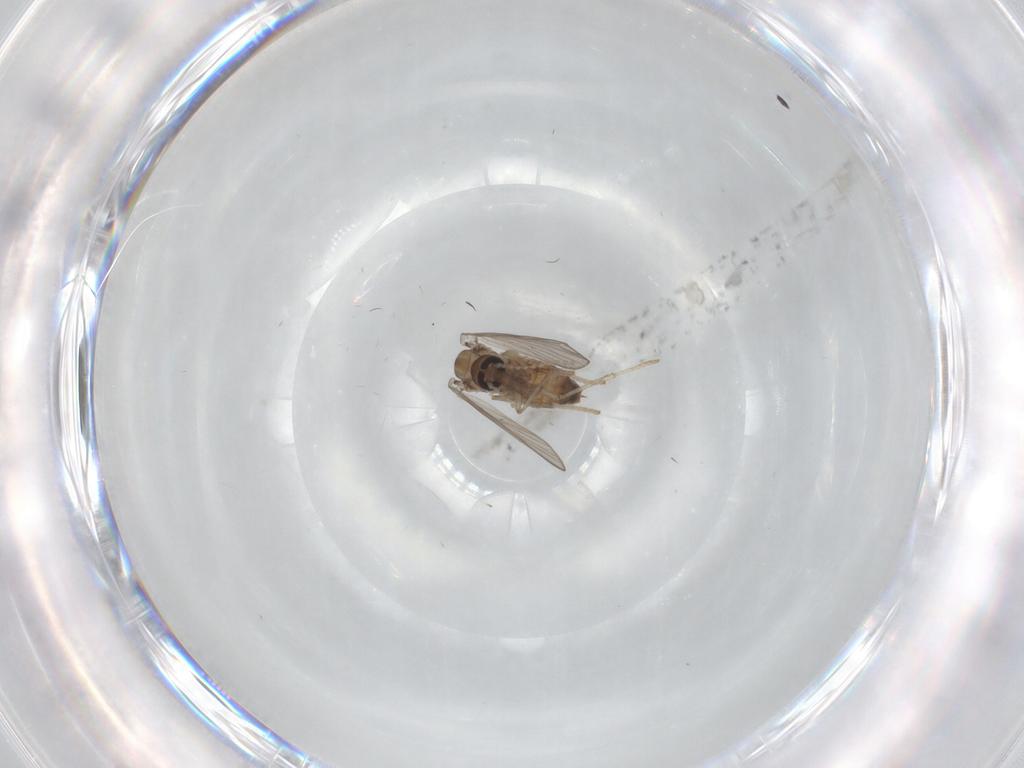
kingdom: Animalia
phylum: Arthropoda
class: Insecta
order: Diptera
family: Psychodidae
